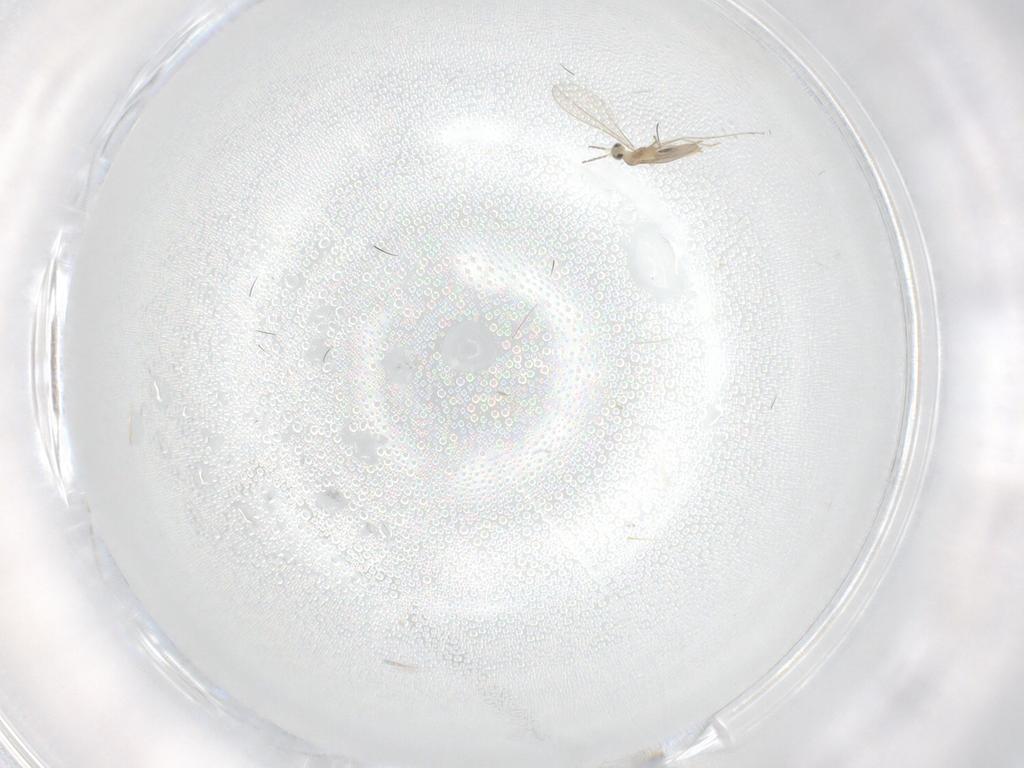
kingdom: Animalia
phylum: Arthropoda
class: Insecta
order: Diptera
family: Cecidomyiidae
